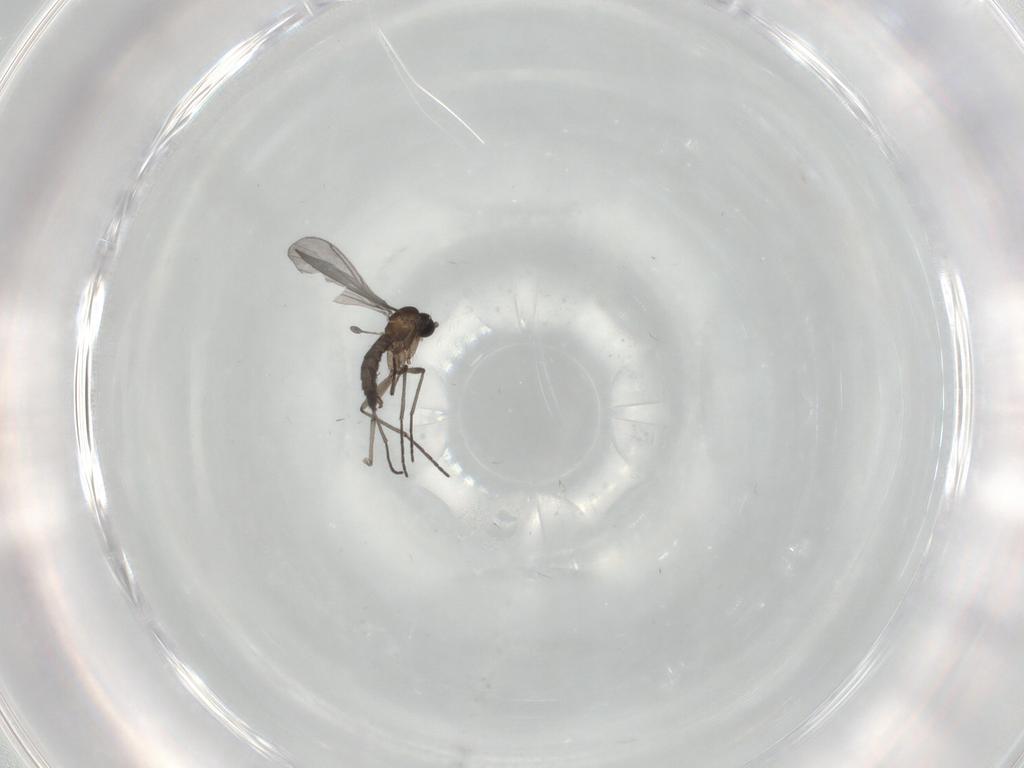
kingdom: Animalia
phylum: Arthropoda
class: Insecta
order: Diptera
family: Sciaridae
